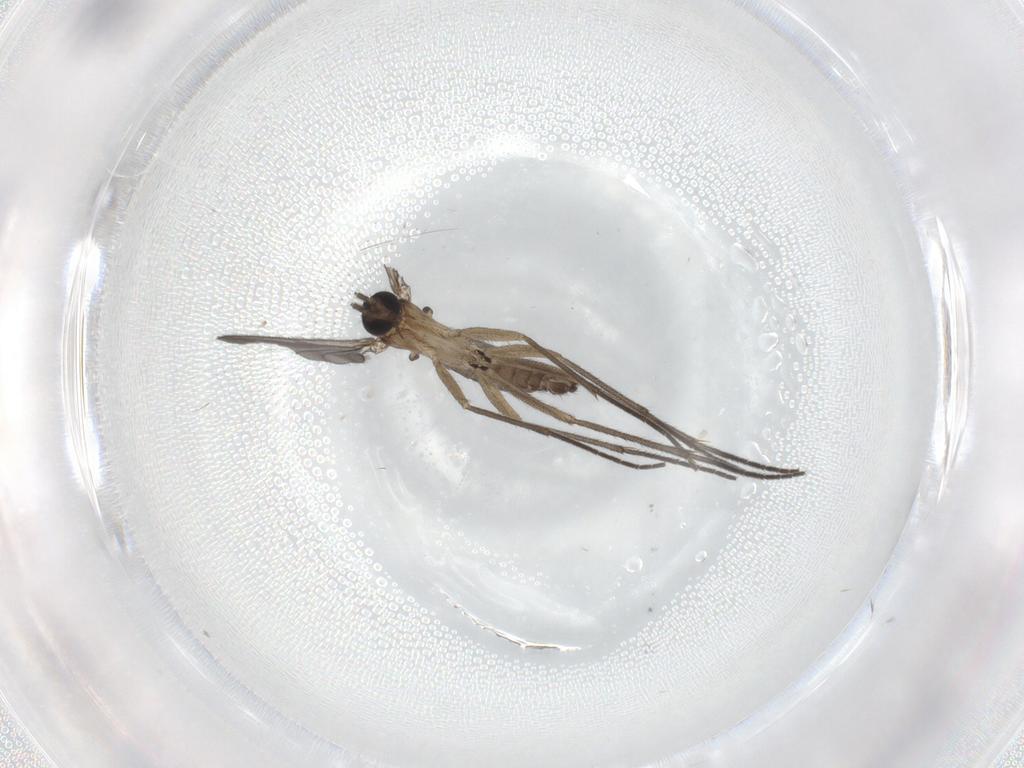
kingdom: Animalia
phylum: Arthropoda
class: Insecta
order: Diptera
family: Sciaridae
